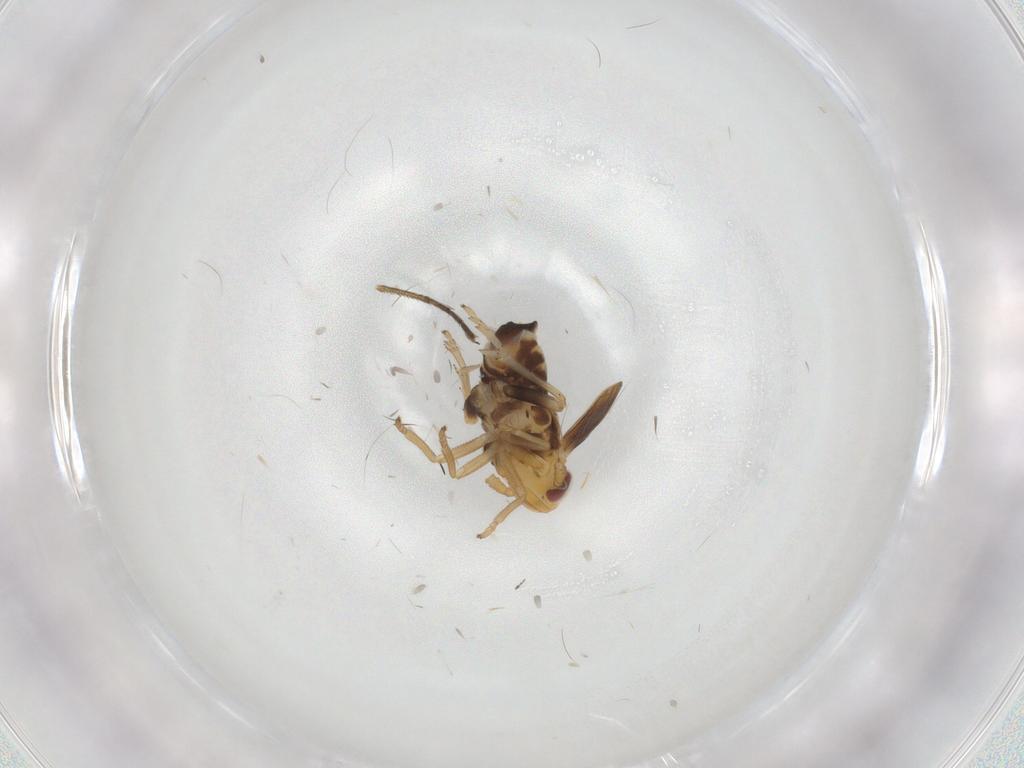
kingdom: Animalia
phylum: Arthropoda
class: Insecta
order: Hemiptera
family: Delphacidae
